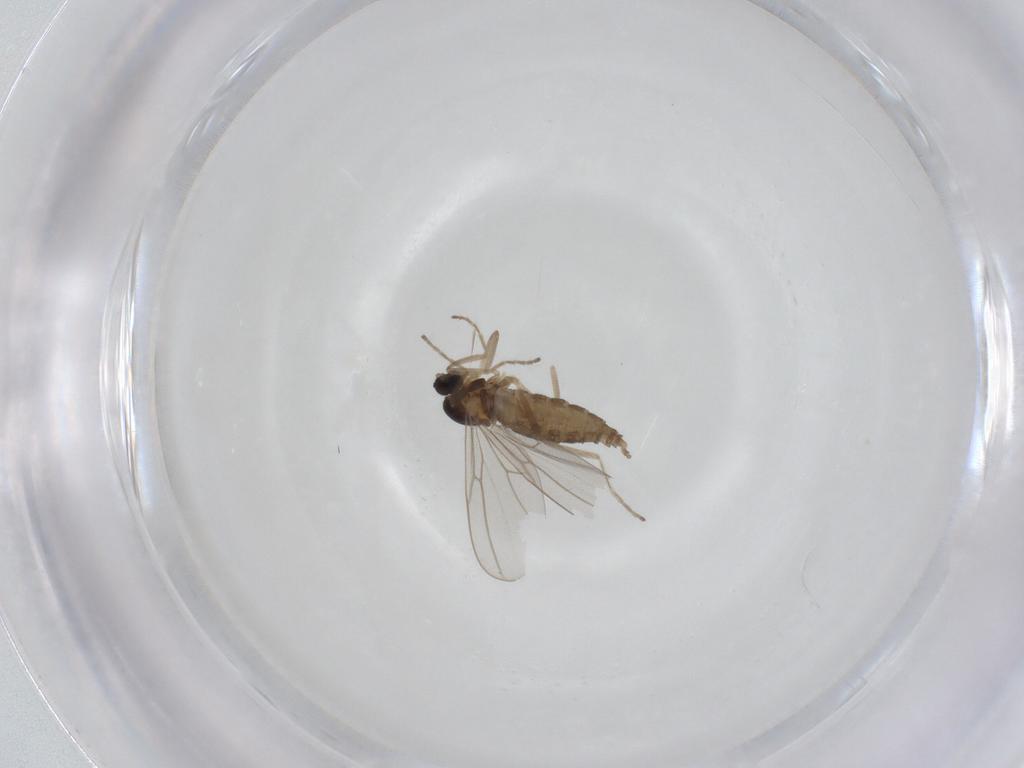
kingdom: Animalia
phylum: Arthropoda
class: Insecta
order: Diptera
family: Cecidomyiidae
